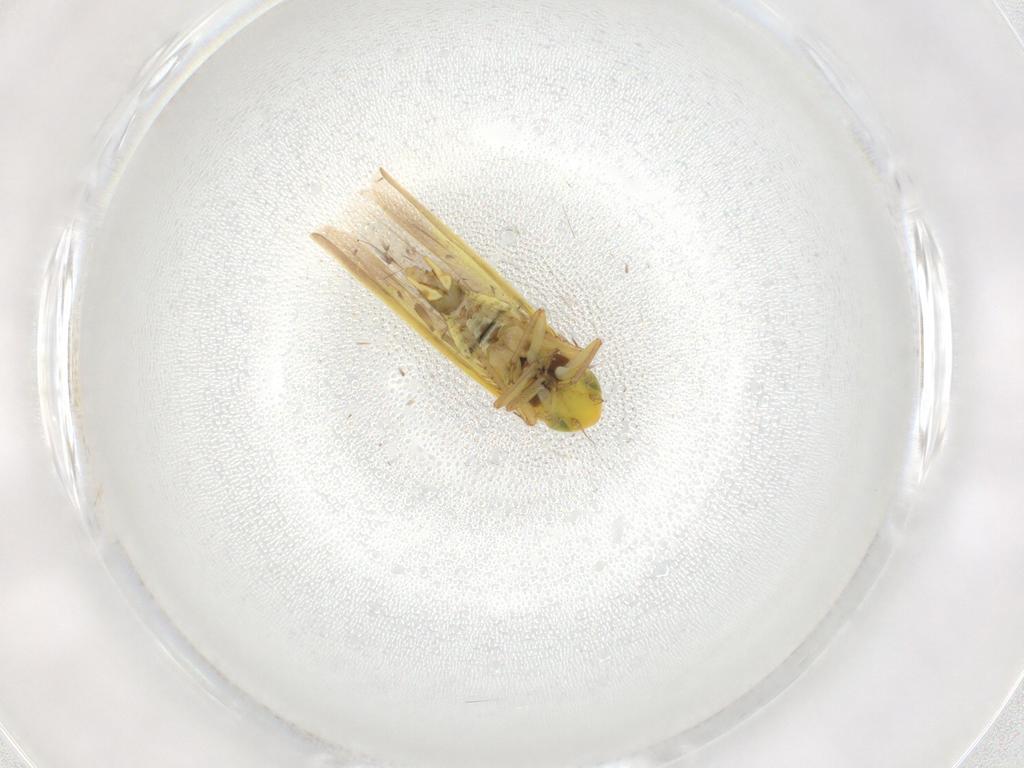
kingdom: Animalia
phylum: Arthropoda
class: Insecta
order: Hemiptera
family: Cicadellidae
